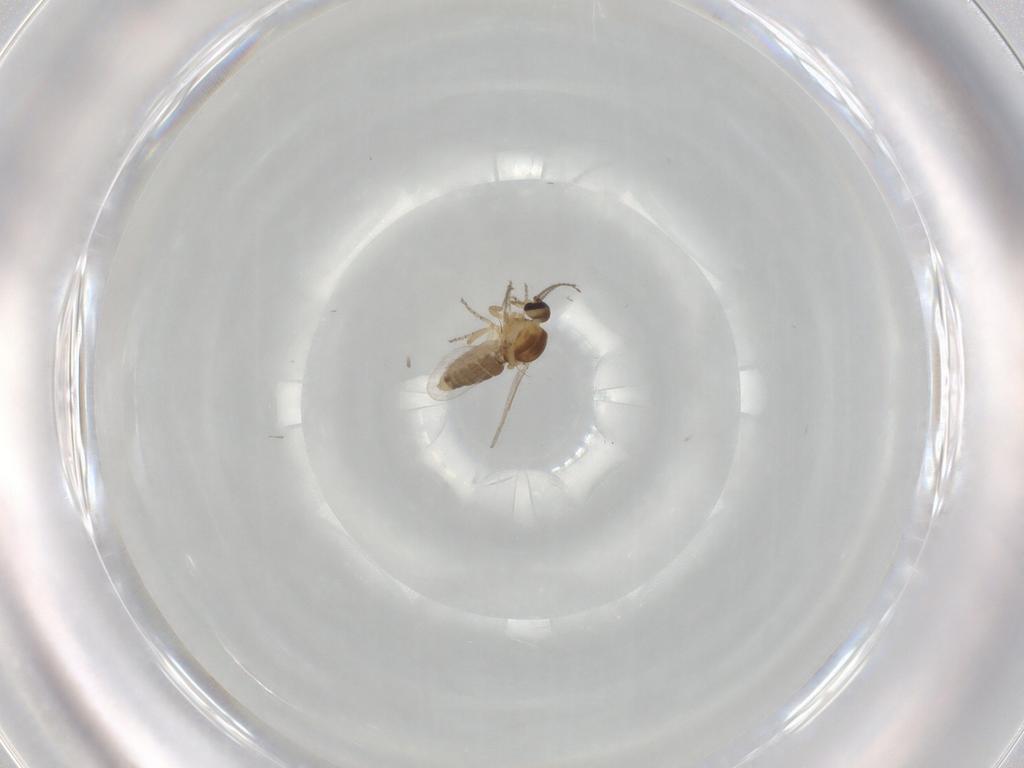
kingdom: Animalia
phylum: Arthropoda
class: Insecta
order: Diptera
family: Ceratopogonidae
